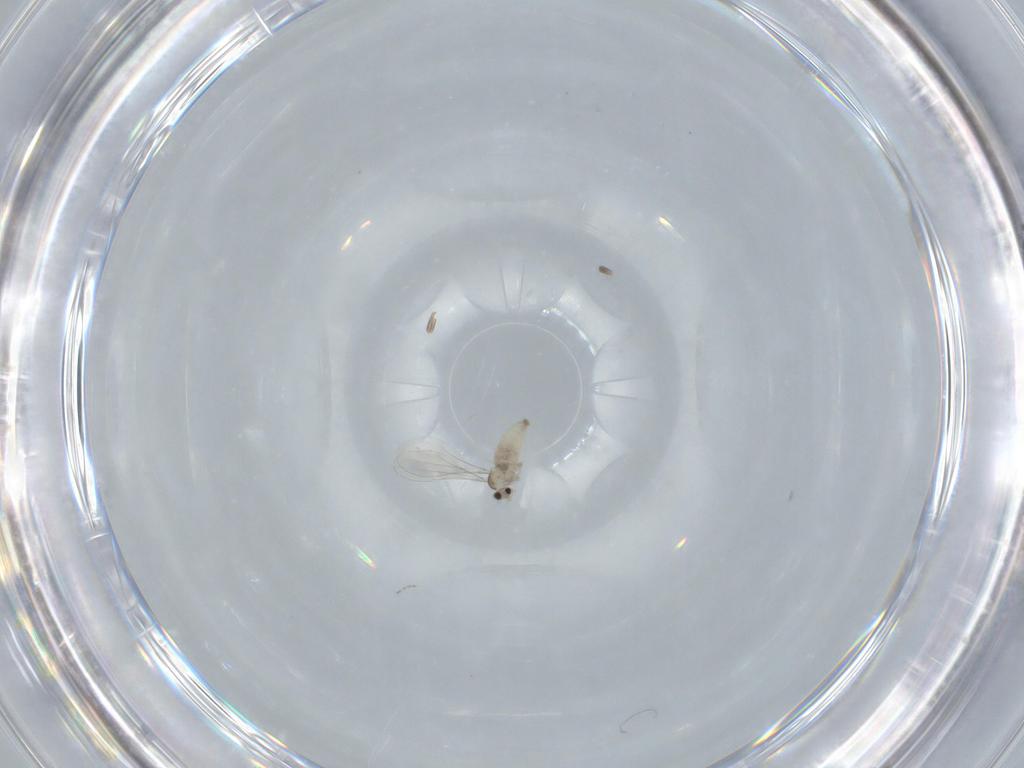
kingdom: Animalia
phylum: Arthropoda
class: Insecta
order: Diptera
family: Cecidomyiidae
